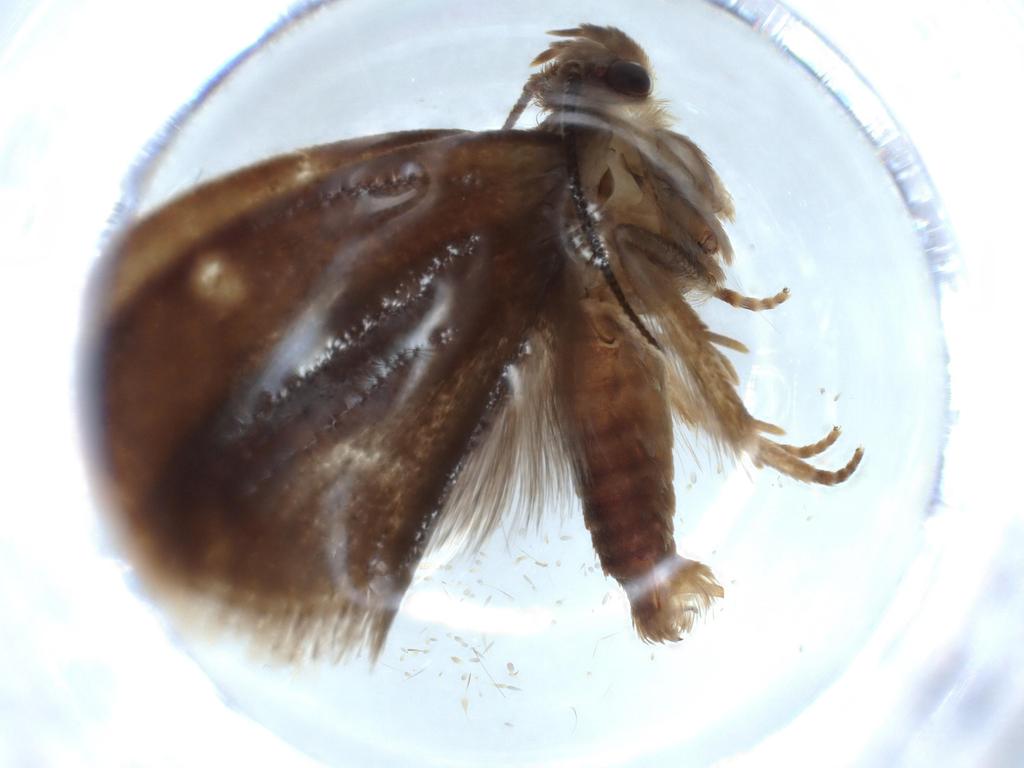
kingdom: Animalia
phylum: Arthropoda
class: Insecta
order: Lepidoptera
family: Tineidae
